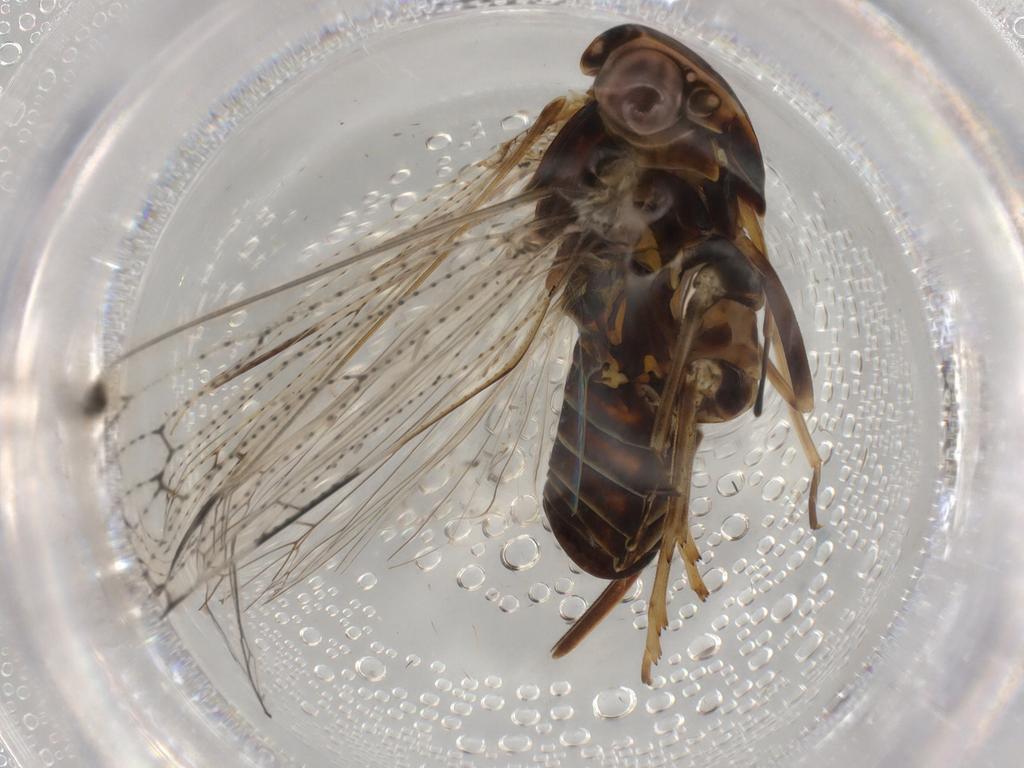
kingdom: Animalia
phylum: Arthropoda
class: Insecta
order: Hemiptera
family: Cixiidae
